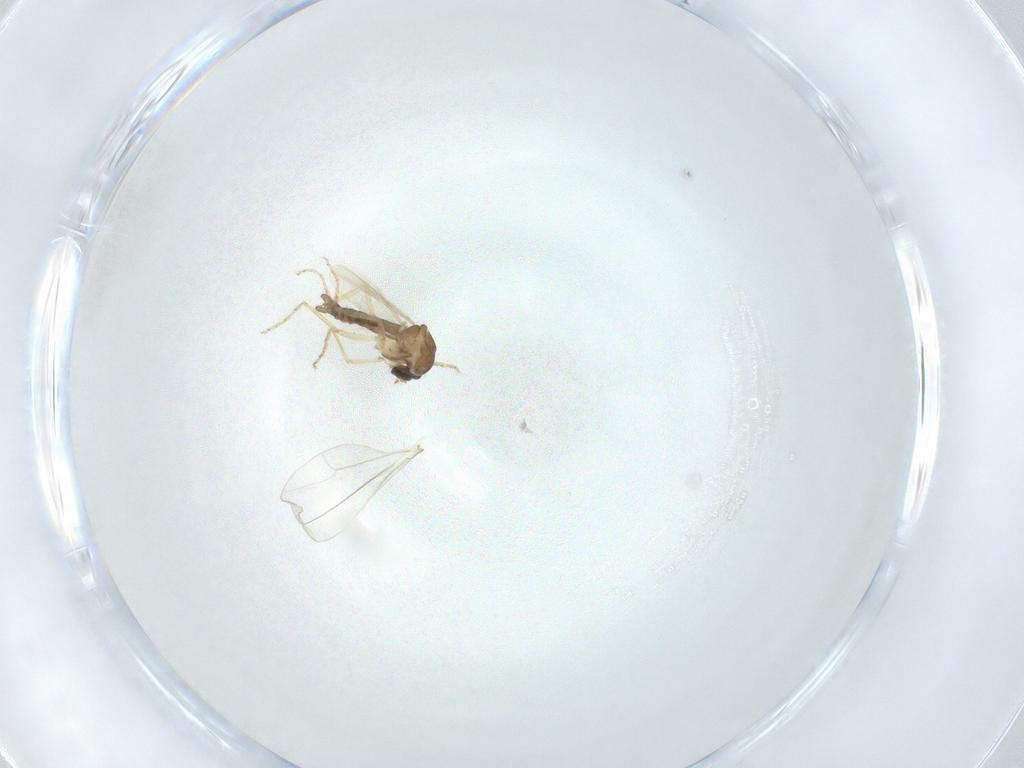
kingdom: Animalia
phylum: Arthropoda
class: Insecta
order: Diptera
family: Ceratopogonidae
